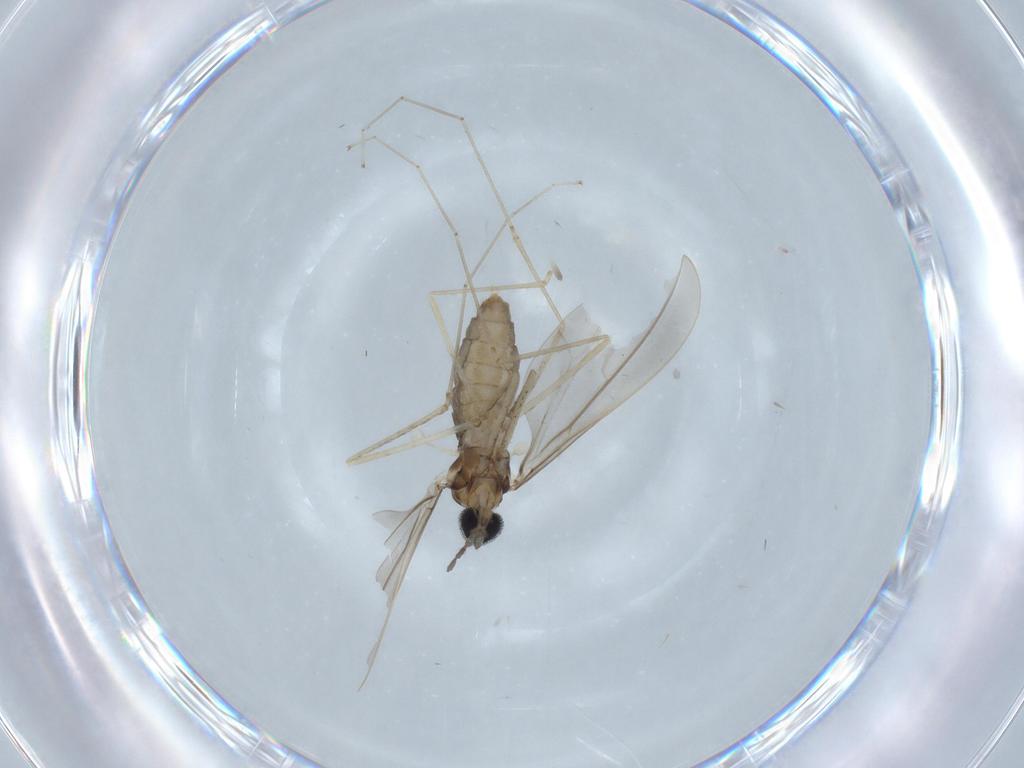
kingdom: Animalia
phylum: Arthropoda
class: Insecta
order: Diptera
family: Cecidomyiidae
